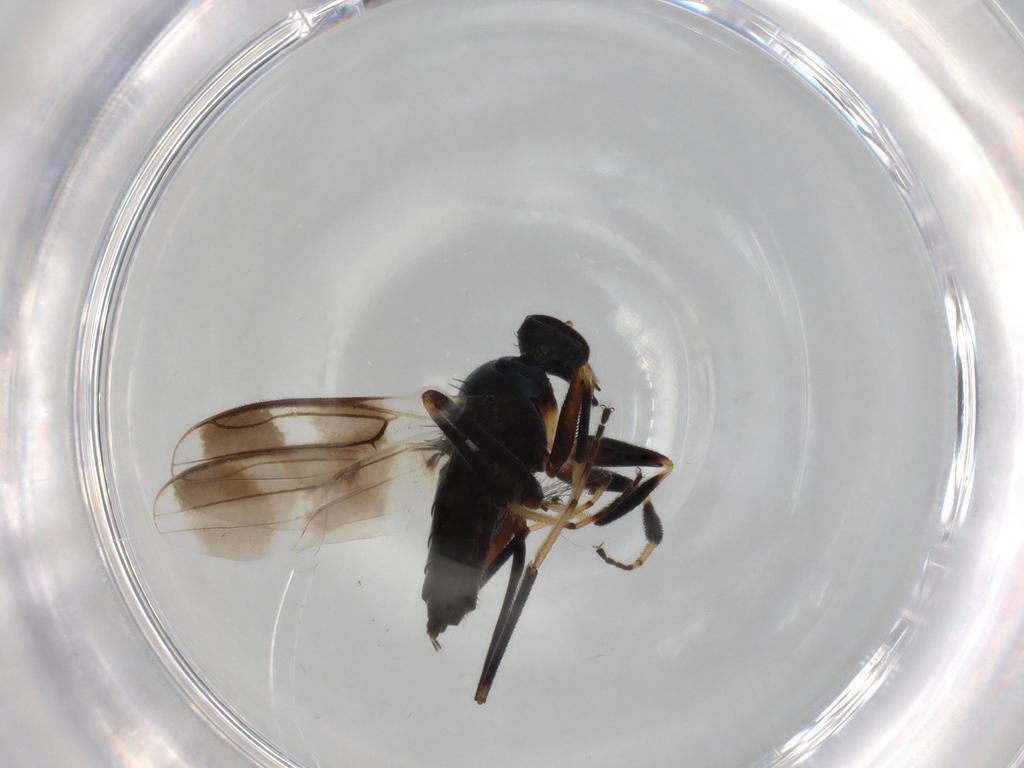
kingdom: Animalia
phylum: Arthropoda
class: Insecta
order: Diptera
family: Hybotidae
